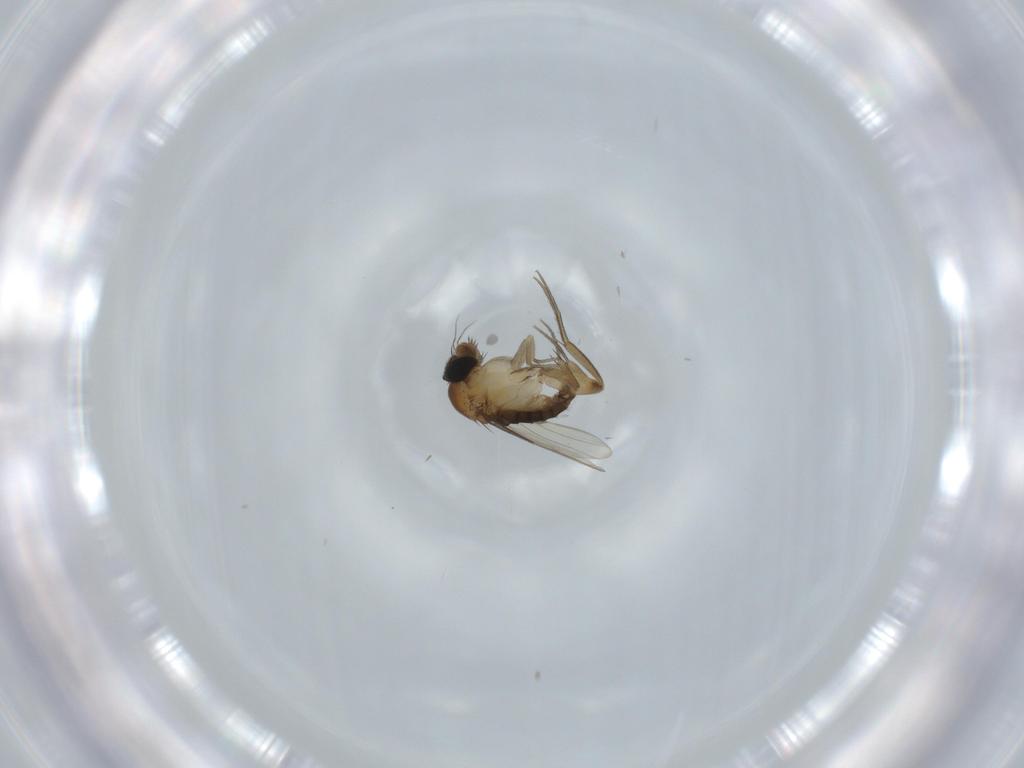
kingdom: Animalia
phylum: Arthropoda
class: Insecta
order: Diptera
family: Phoridae
